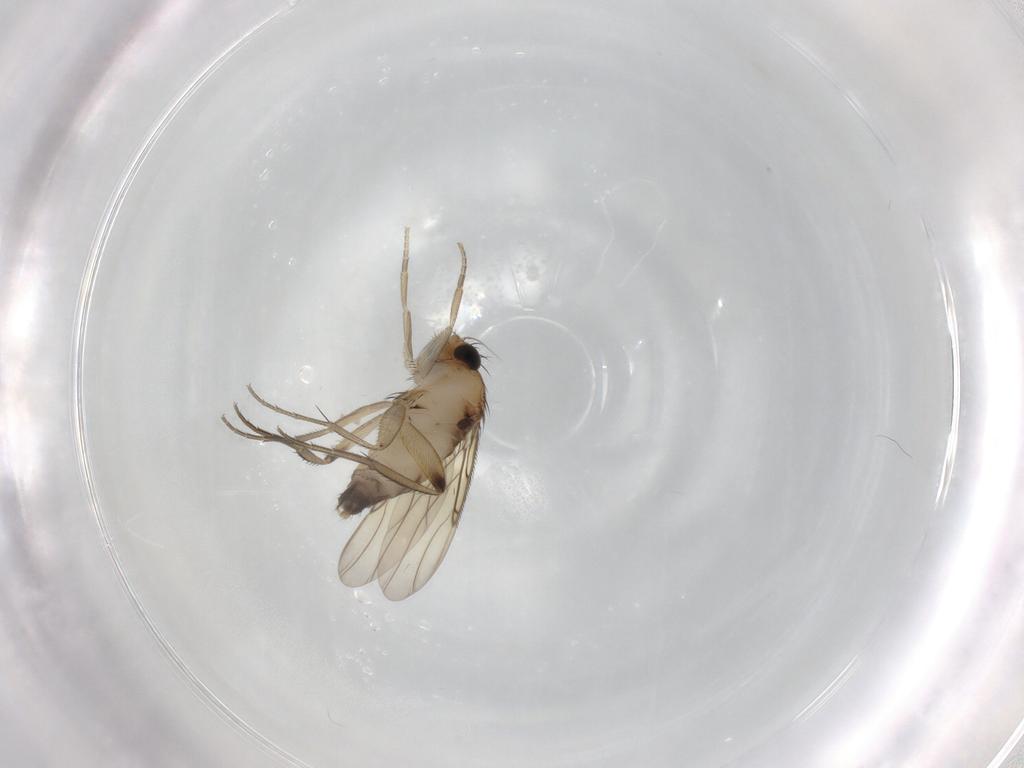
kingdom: Animalia
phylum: Arthropoda
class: Insecta
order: Diptera
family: Phoridae
